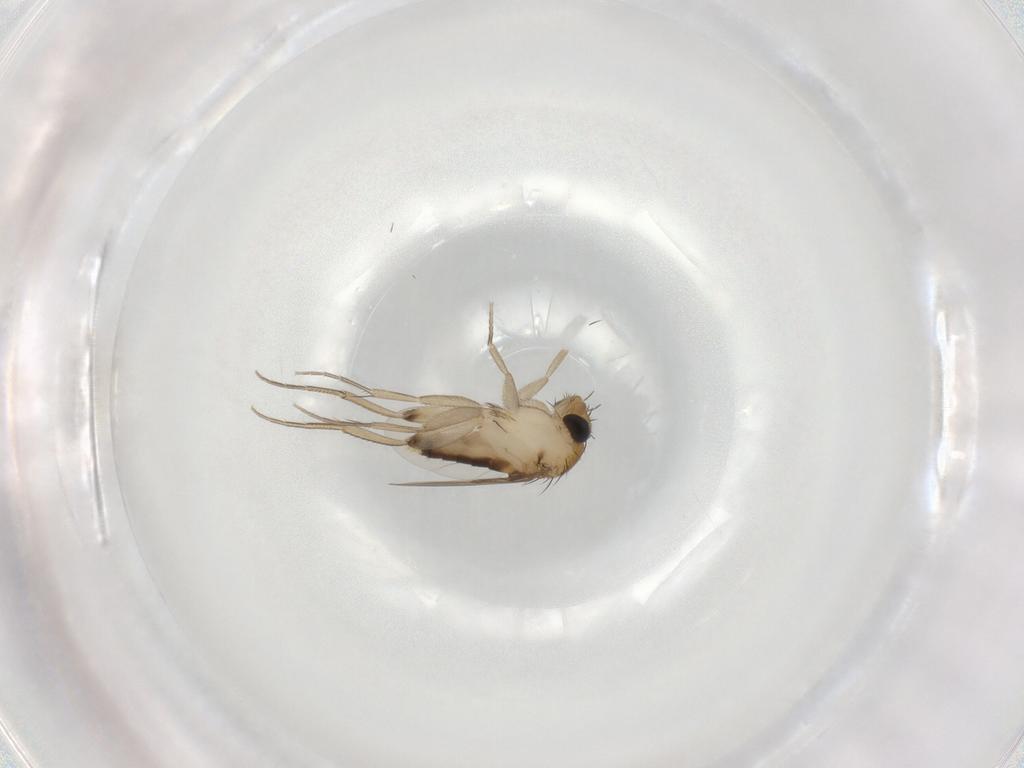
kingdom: Animalia
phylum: Arthropoda
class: Insecta
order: Diptera
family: Phoridae
